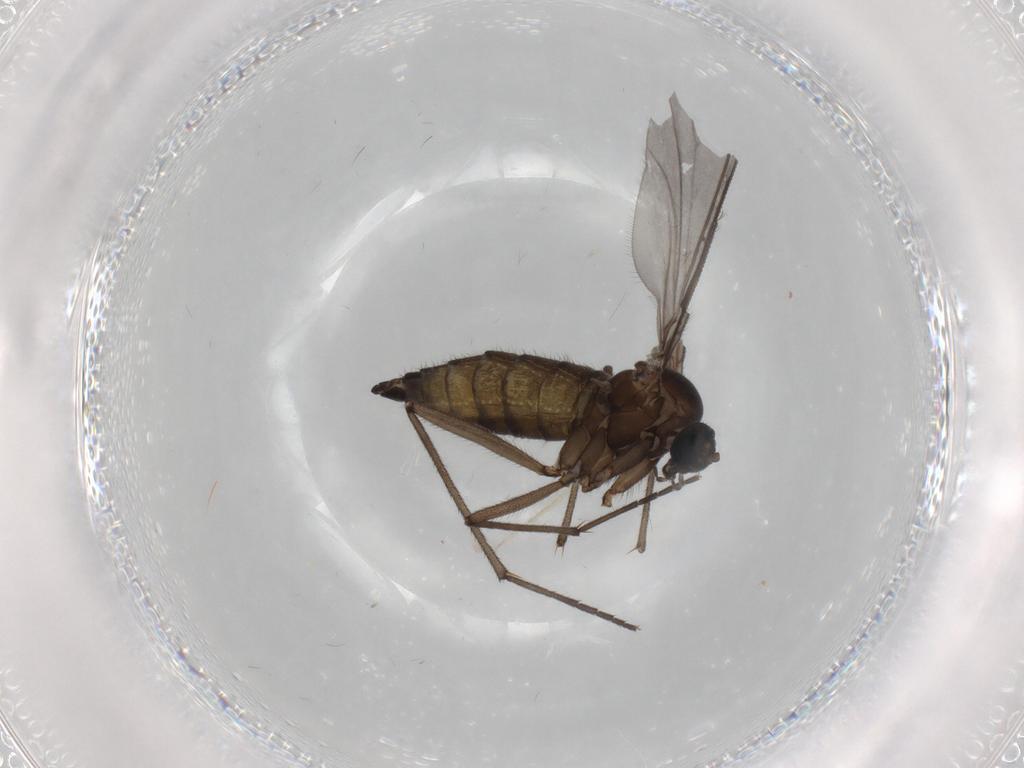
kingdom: Animalia
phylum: Arthropoda
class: Insecta
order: Diptera
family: Sciaridae
